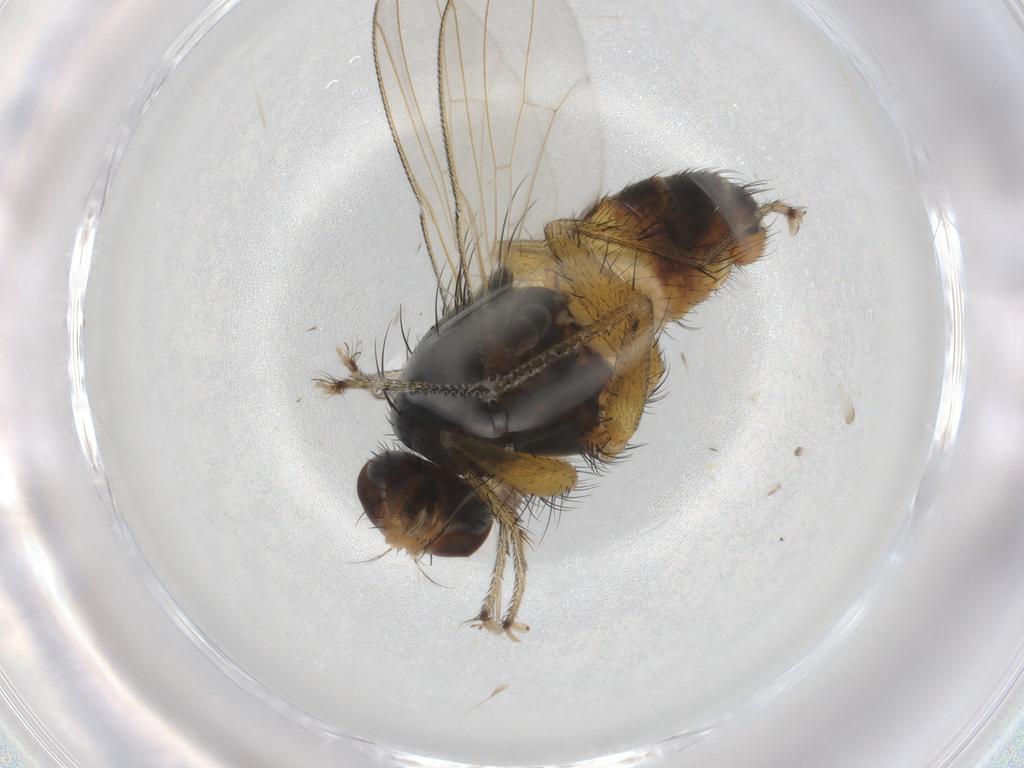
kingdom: Animalia
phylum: Arthropoda
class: Insecta
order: Diptera
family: Muscidae
